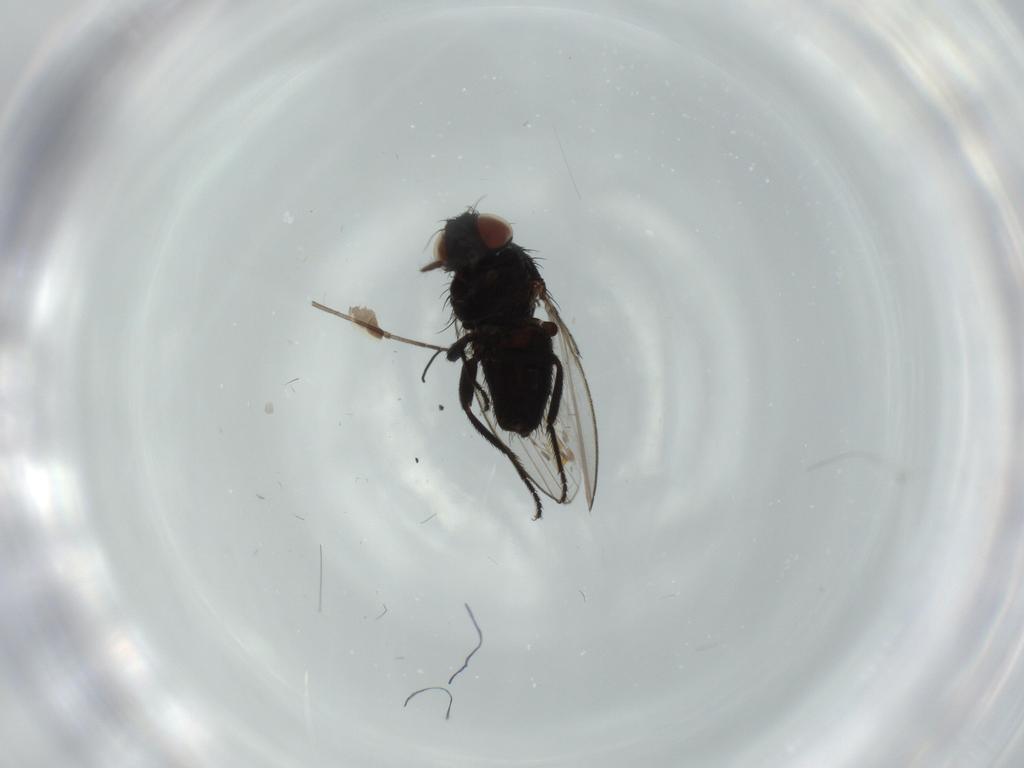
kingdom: Animalia
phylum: Arthropoda
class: Insecta
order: Diptera
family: Milichiidae
